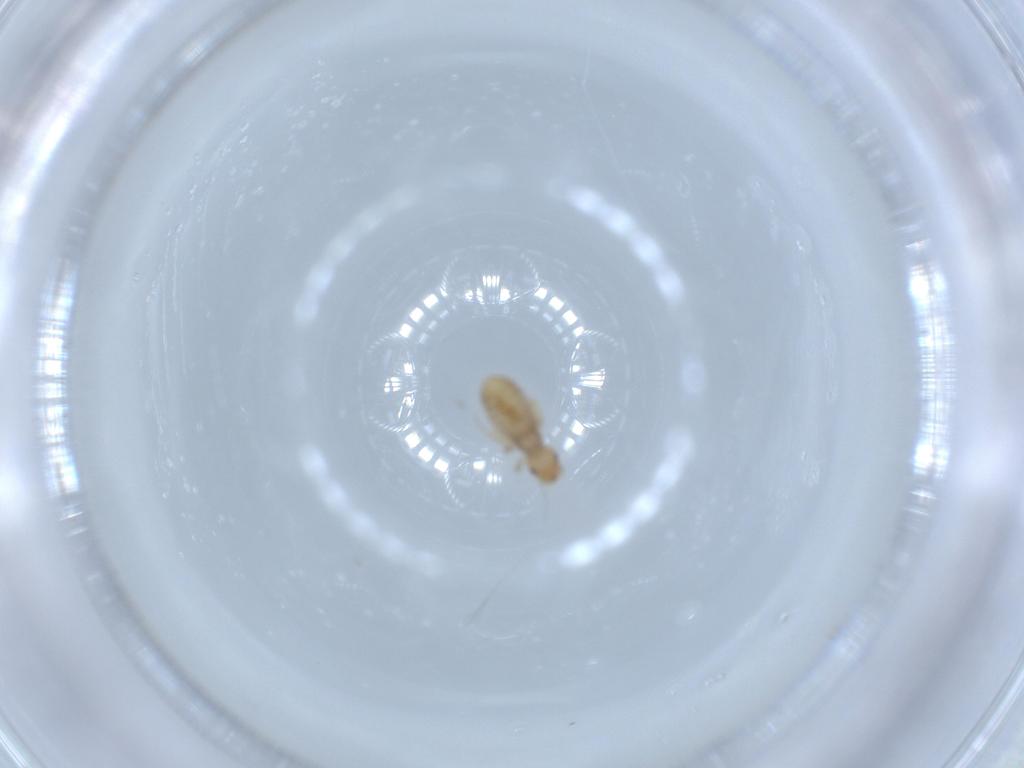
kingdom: Animalia
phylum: Arthropoda
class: Insecta
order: Psocodea
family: Liposcelididae
